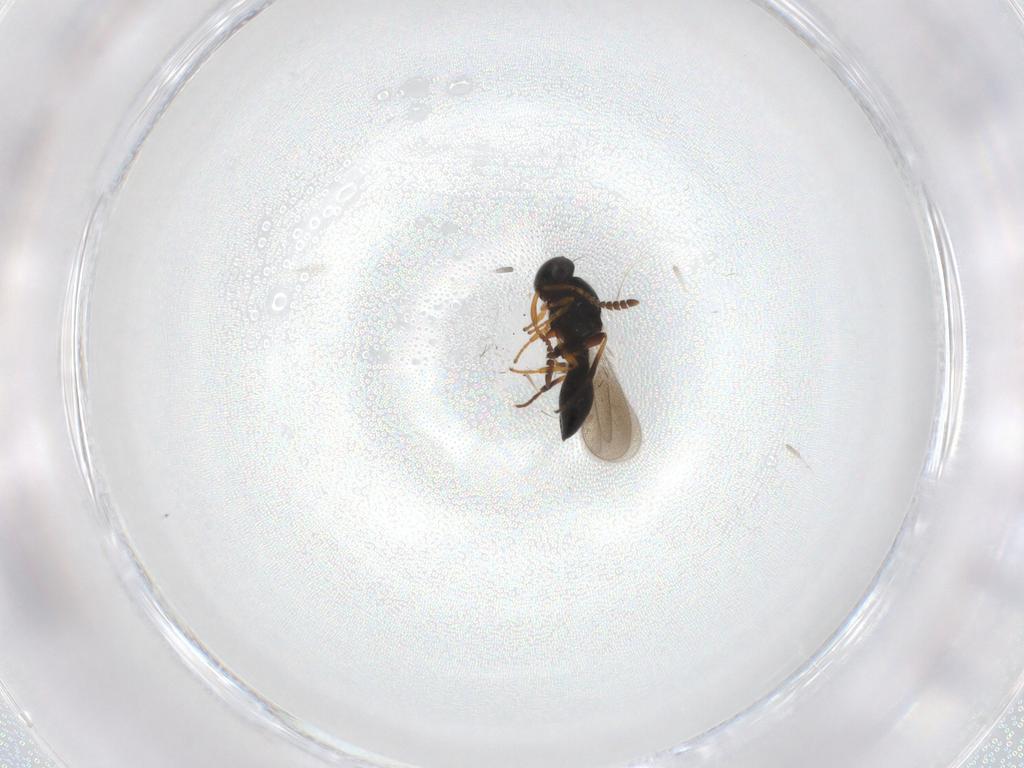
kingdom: Animalia
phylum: Arthropoda
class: Insecta
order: Hymenoptera
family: Platygastridae
